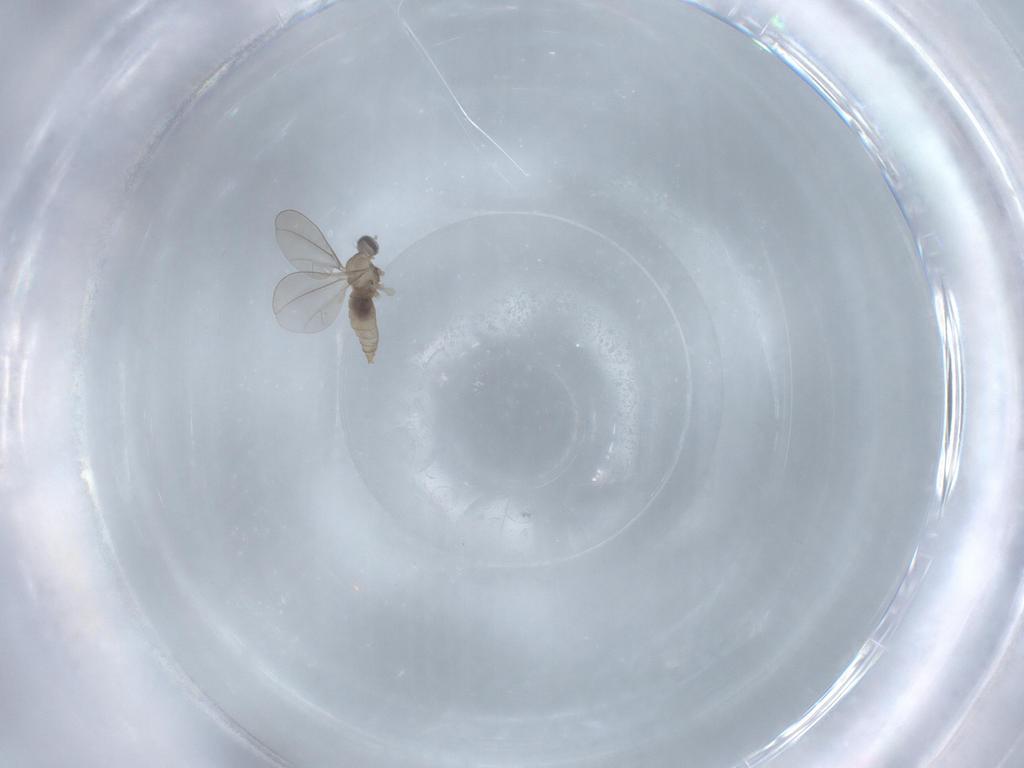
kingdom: Animalia
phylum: Arthropoda
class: Insecta
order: Diptera
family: Cecidomyiidae
